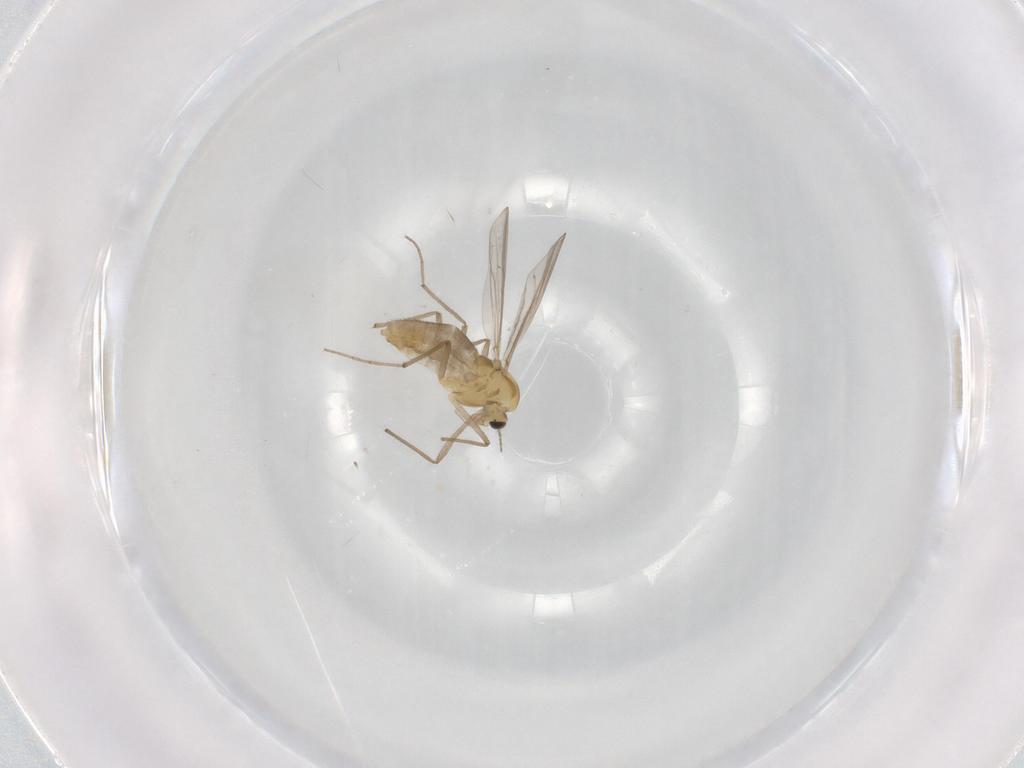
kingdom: Animalia
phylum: Arthropoda
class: Insecta
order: Diptera
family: Chironomidae
